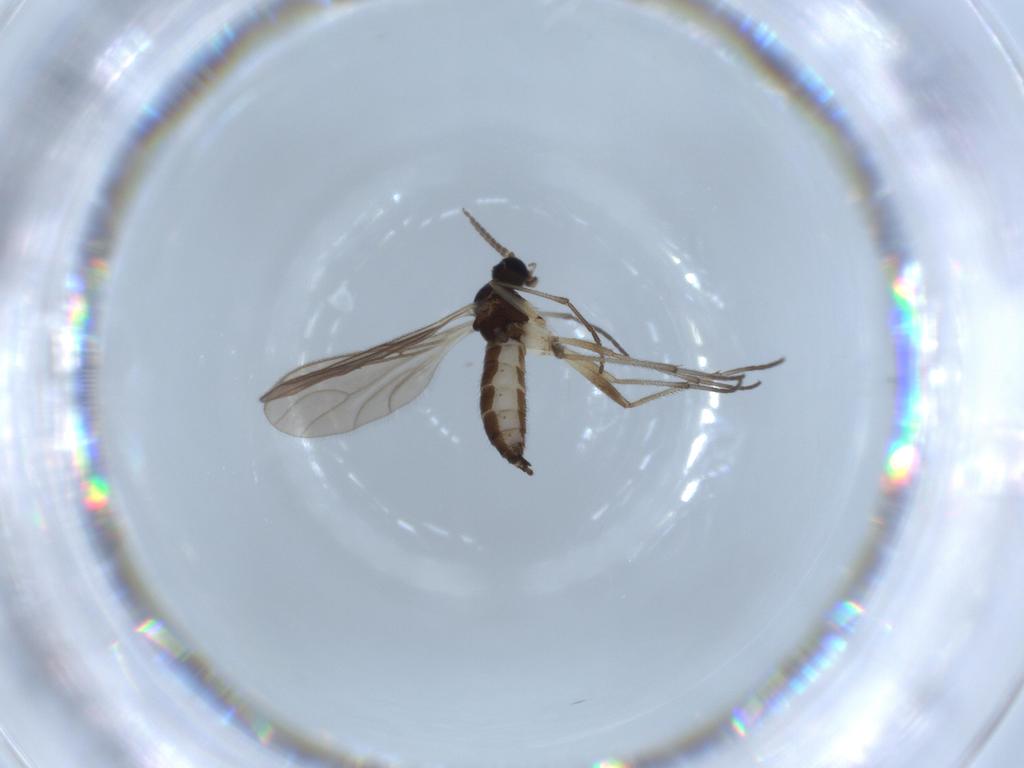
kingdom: Animalia
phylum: Arthropoda
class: Insecta
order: Diptera
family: Sciaridae
